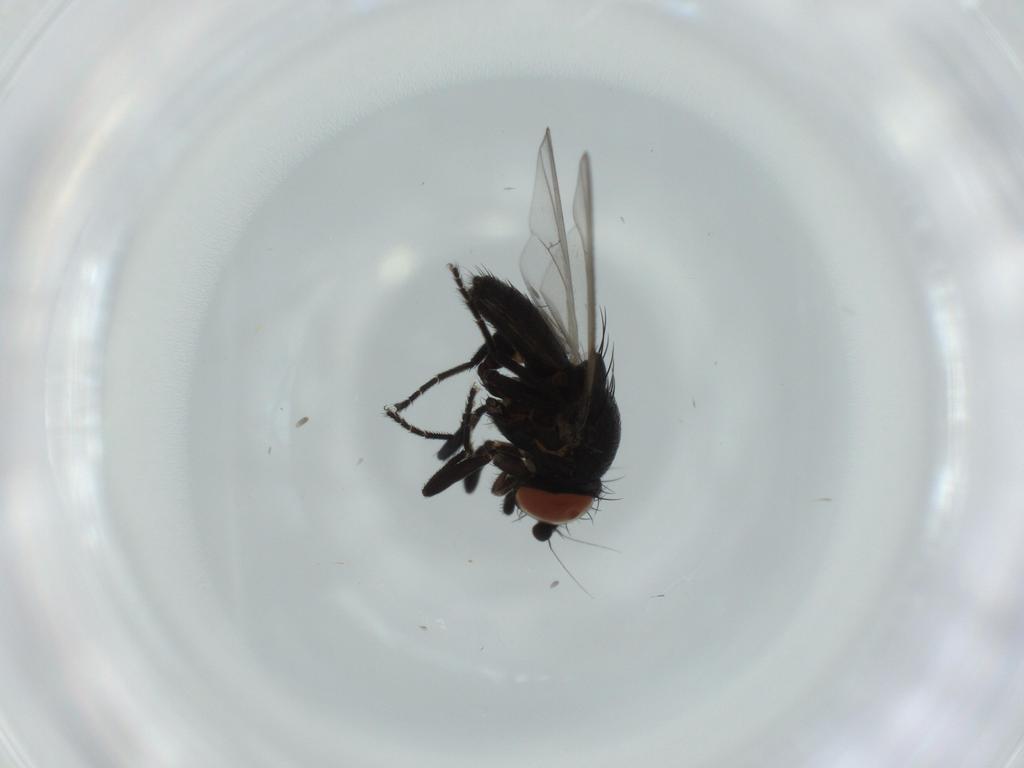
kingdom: Animalia
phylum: Arthropoda
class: Insecta
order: Diptera
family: Milichiidae
